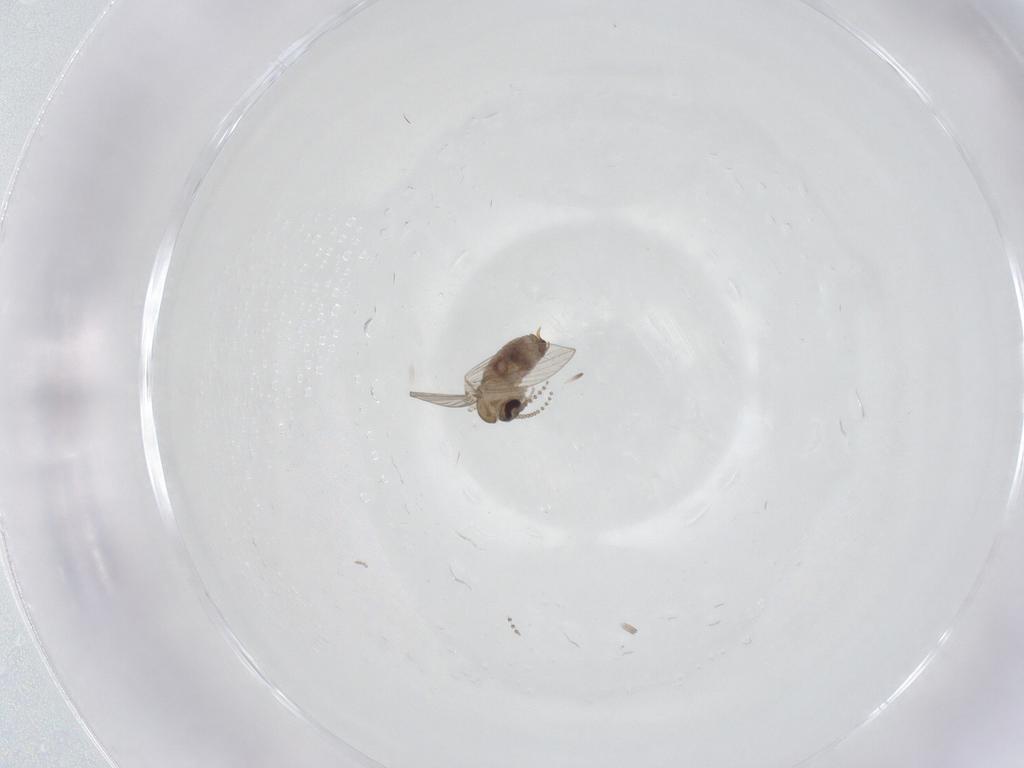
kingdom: Animalia
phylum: Arthropoda
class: Insecta
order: Diptera
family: Psychodidae
